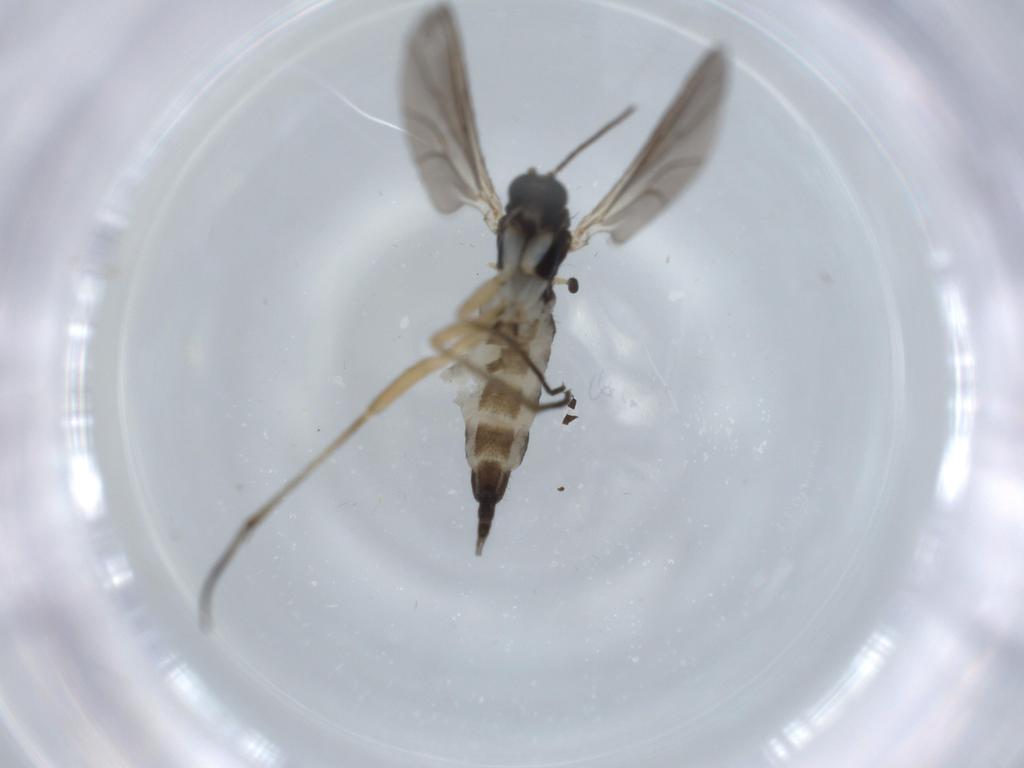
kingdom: Animalia
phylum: Arthropoda
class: Insecta
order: Diptera
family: Sciaridae
